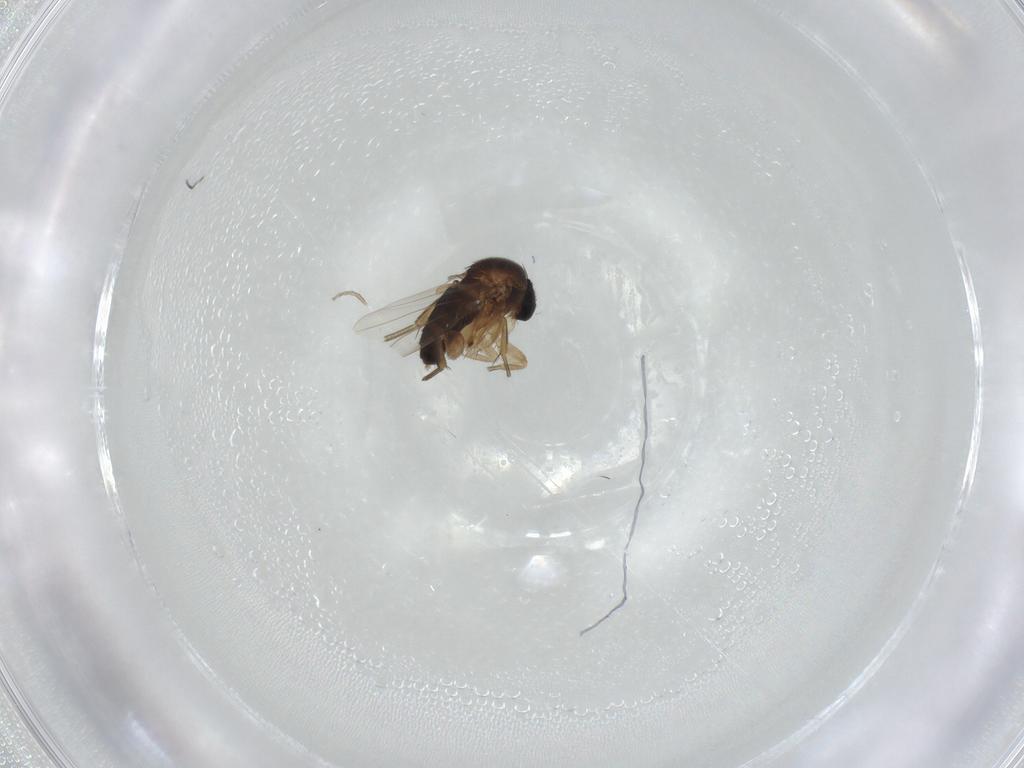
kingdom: Animalia
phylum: Arthropoda
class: Insecta
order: Diptera
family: Phoridae
